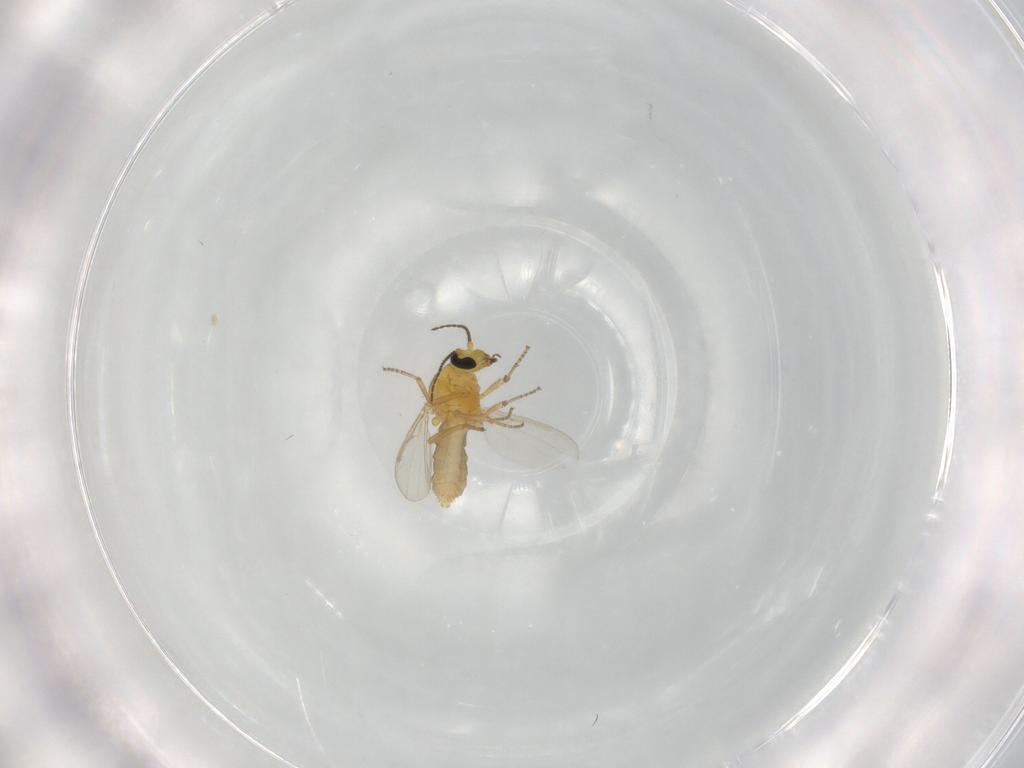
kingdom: Animalia
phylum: Arthropoda
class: Insecta
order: Diptera
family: Ceratopogonidae
